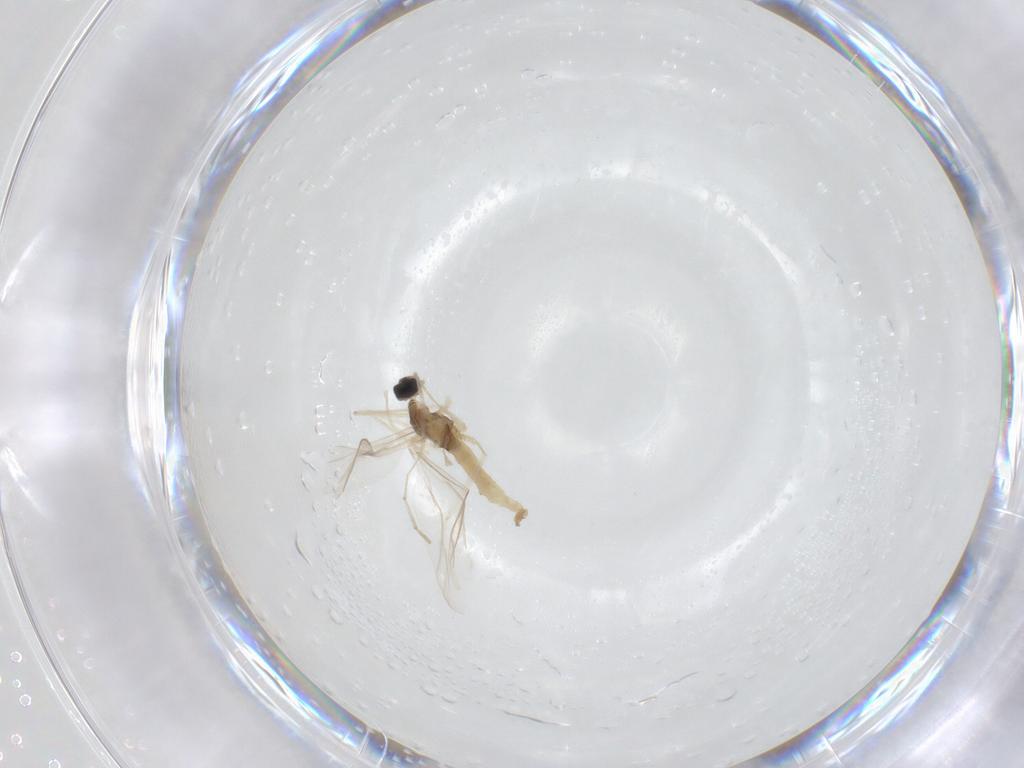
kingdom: Animalia
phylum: Arthropoda
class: Insecta
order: Diptera
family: Cecidomyiidae
